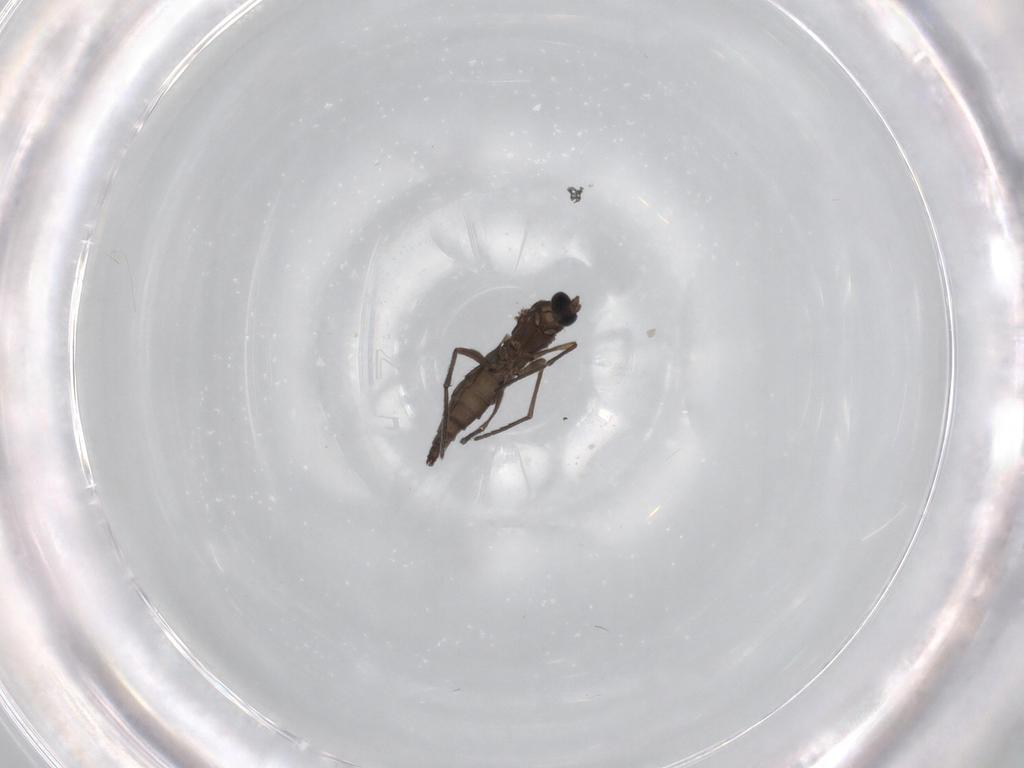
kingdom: Animalia
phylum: Arthropoda
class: Insecta
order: Diptera
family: Sciaridae
